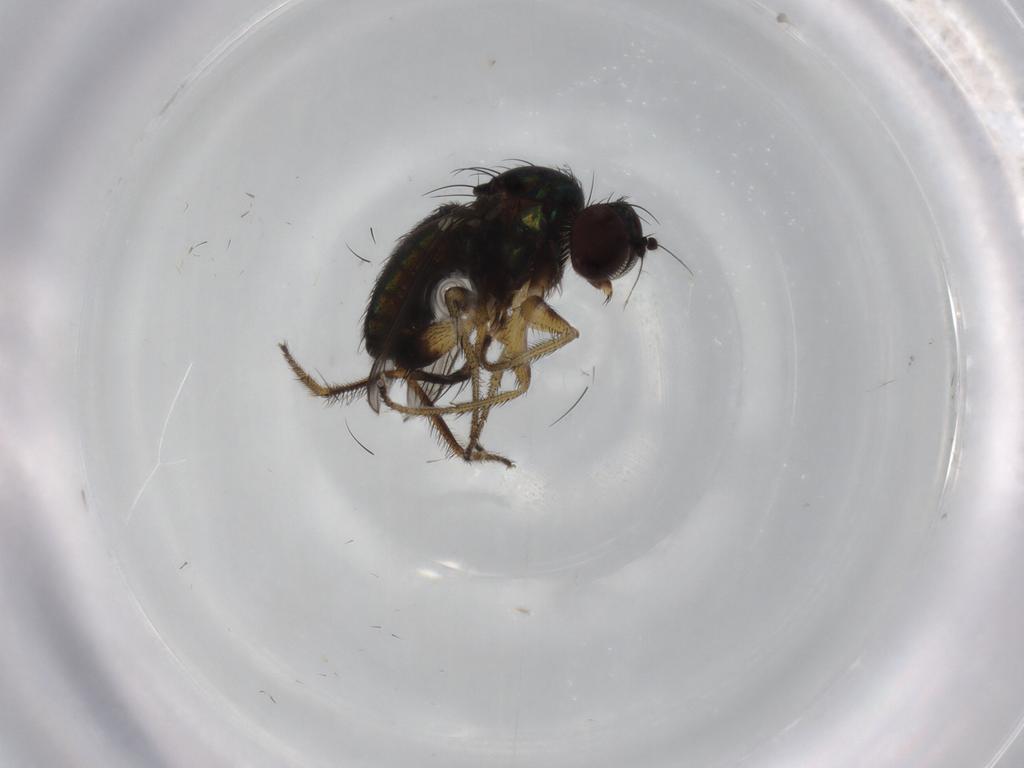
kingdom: Animalia
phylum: Arthropoda
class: Insecta
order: Diptera
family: Dolichopodidae
